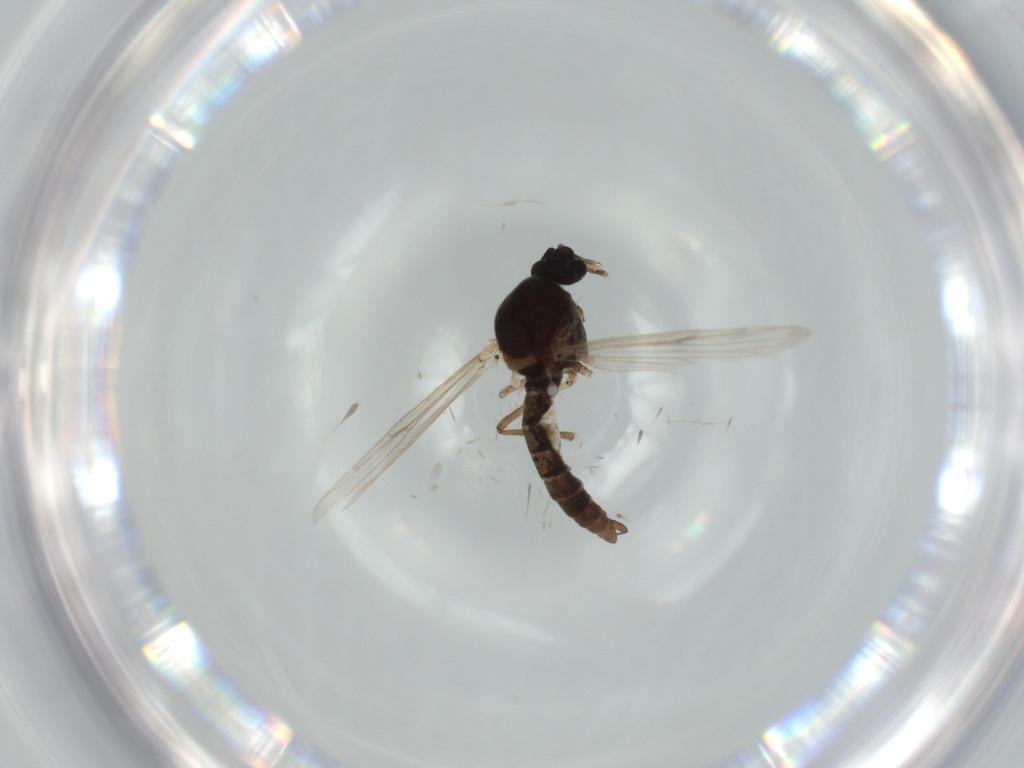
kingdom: Animalia
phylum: Arthropoda
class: Insecta
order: Diptera
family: Ceratopogonidae
